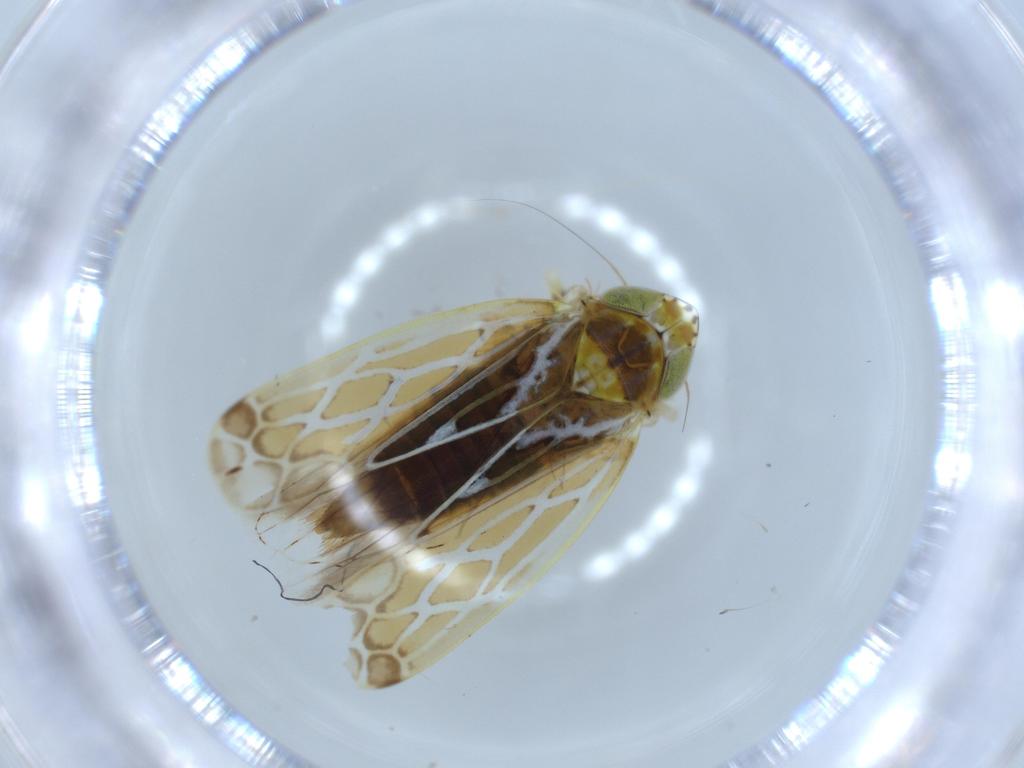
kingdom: Animalia
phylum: Arthropoda
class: Insecta
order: Hemiptera
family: Cicadellidae
